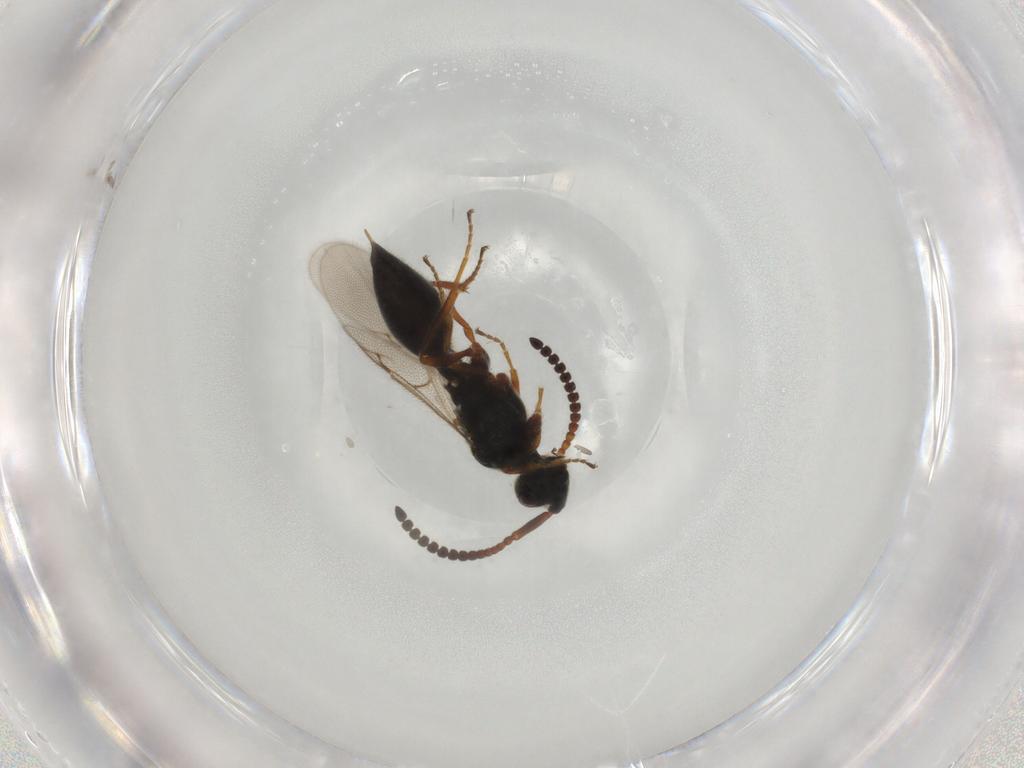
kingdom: Animalia
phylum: Arthropoda
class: Insecta
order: Hymenoptera
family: Diapriidae
